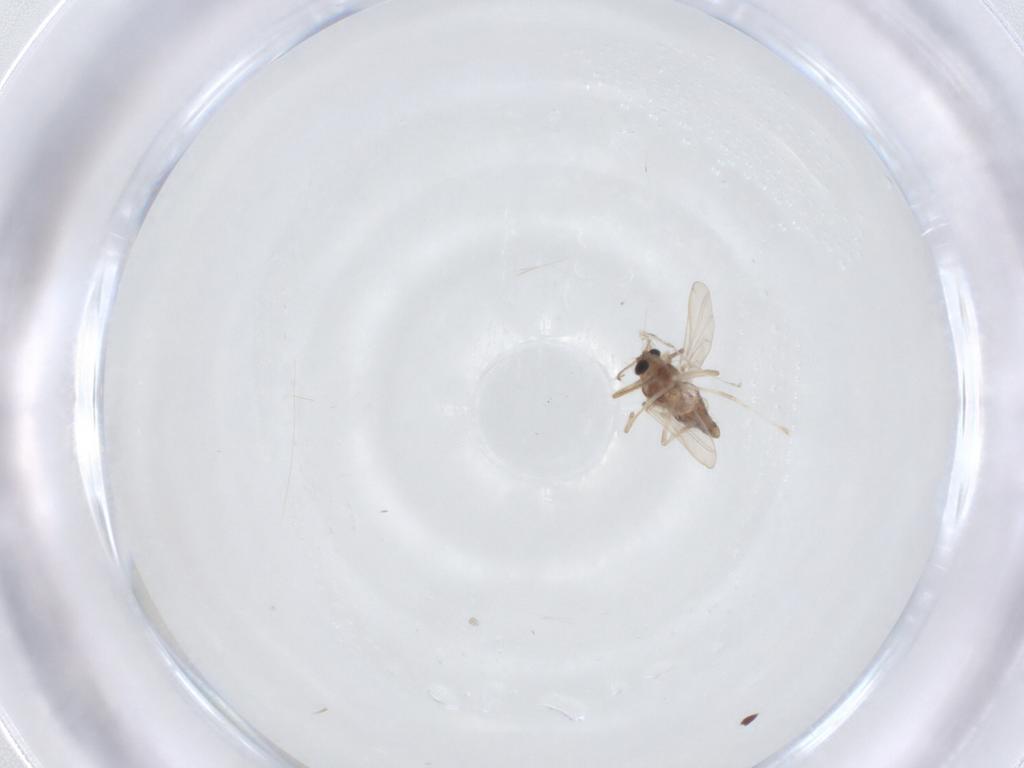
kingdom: Animalia
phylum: Arthropoda
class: Insecta
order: Diptera
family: Chironomidae
